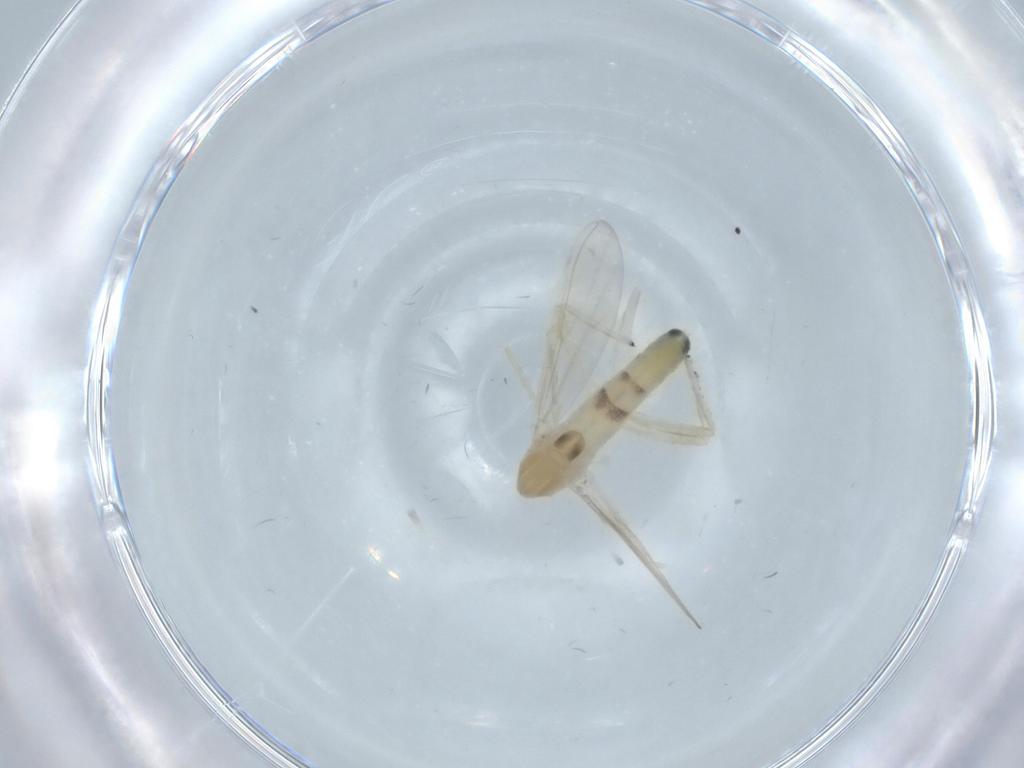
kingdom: Animalia
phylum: Arthropoda
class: Insecta
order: Diptera
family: Chironomidae
